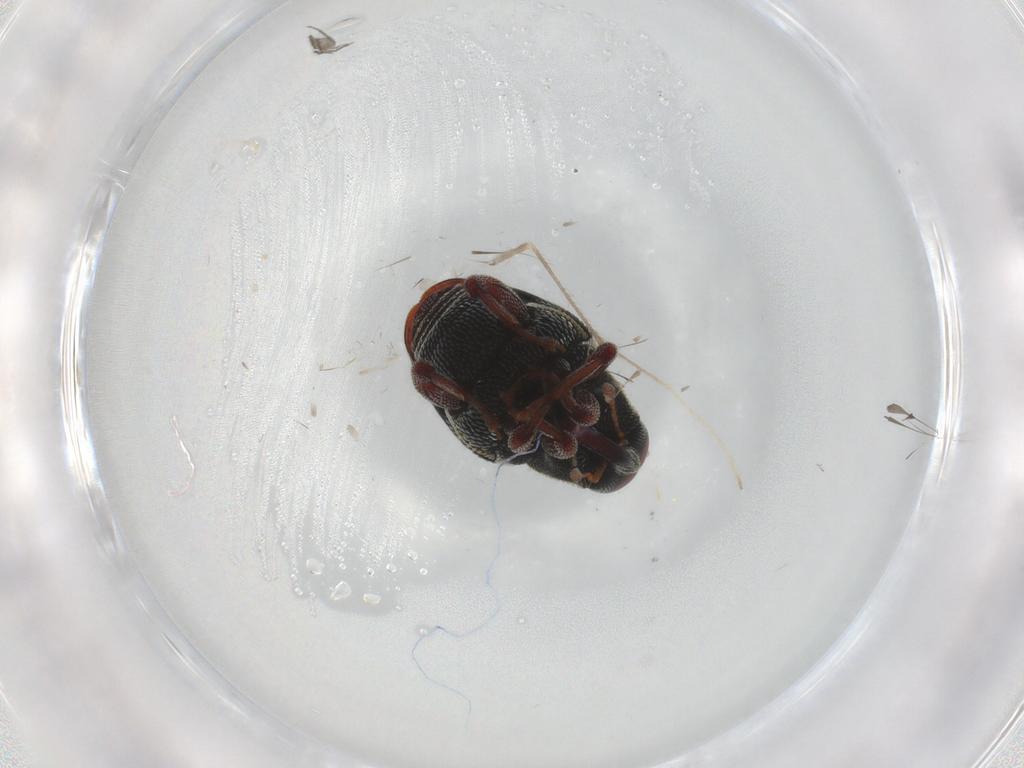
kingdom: Animalia
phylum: Arthropoda
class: Insecta
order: Coleoptera
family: Curculionidae
